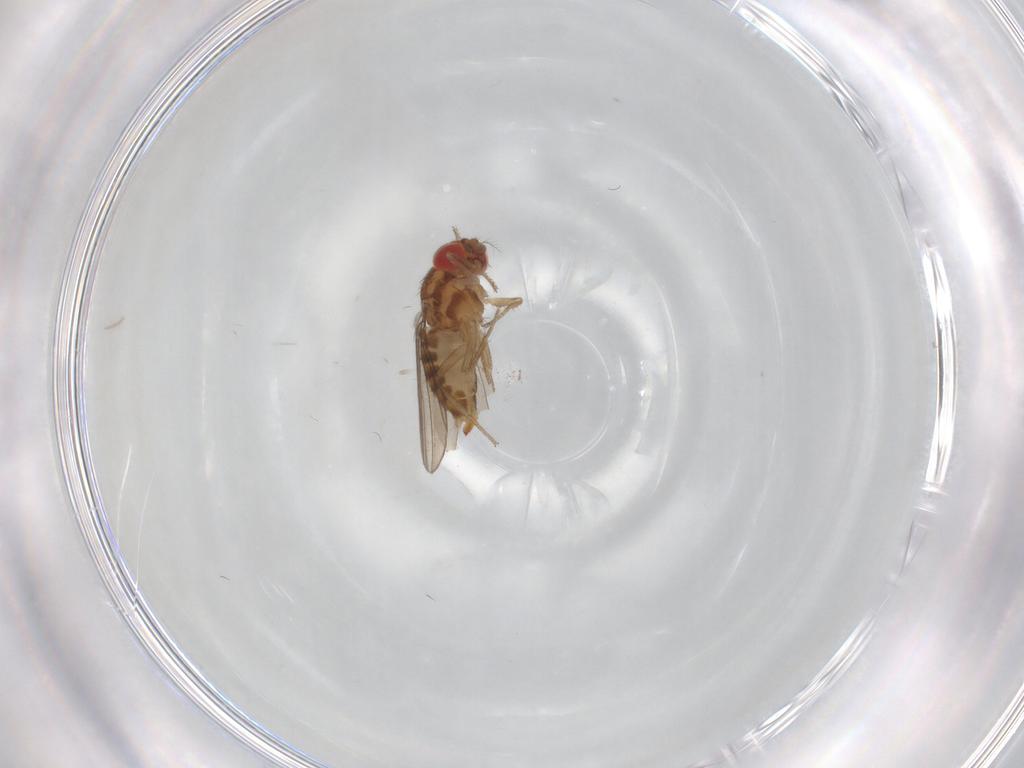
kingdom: Animalia
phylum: Arthropoda
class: Insecta
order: Diptera
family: Drosophilidae
